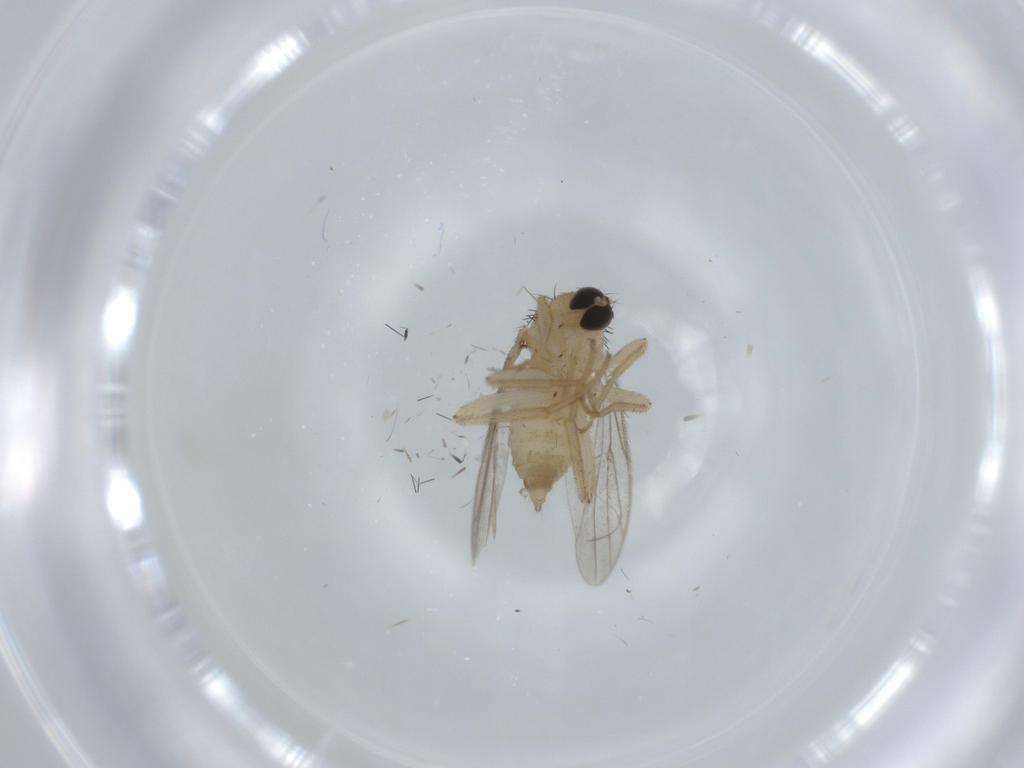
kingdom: Animalia
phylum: Arthropoda
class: Insecta
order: Diptera
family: Hybotidae
